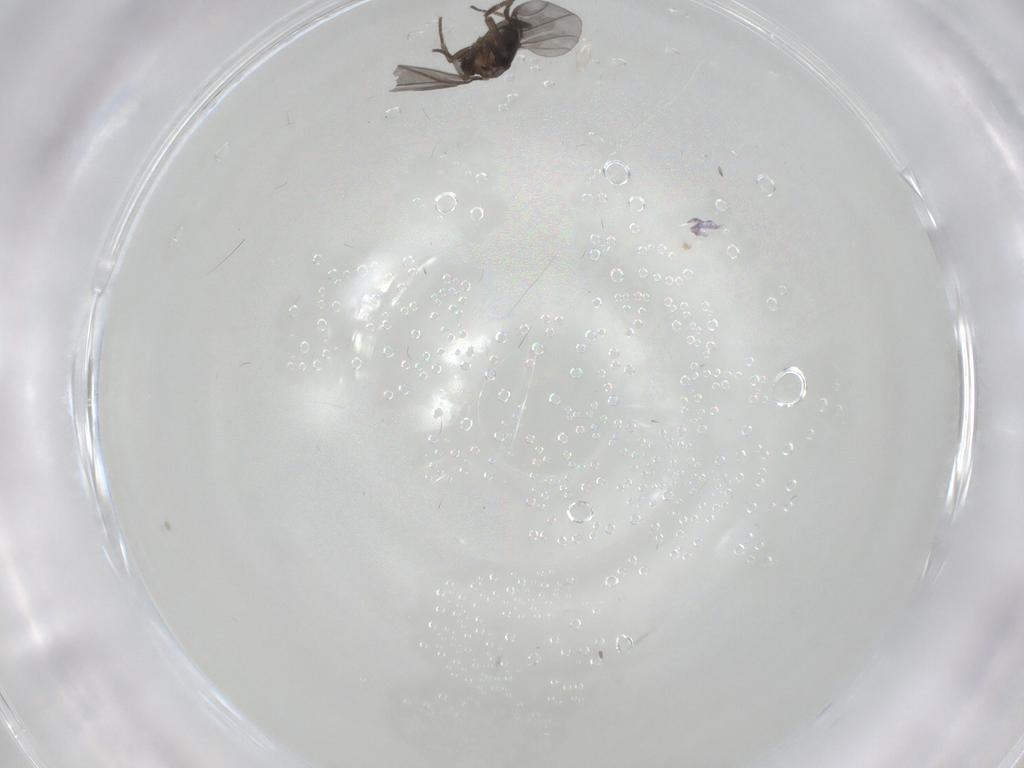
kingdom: Animalia
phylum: Arthropoda
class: Insecta
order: Diptera
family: Phoridae
